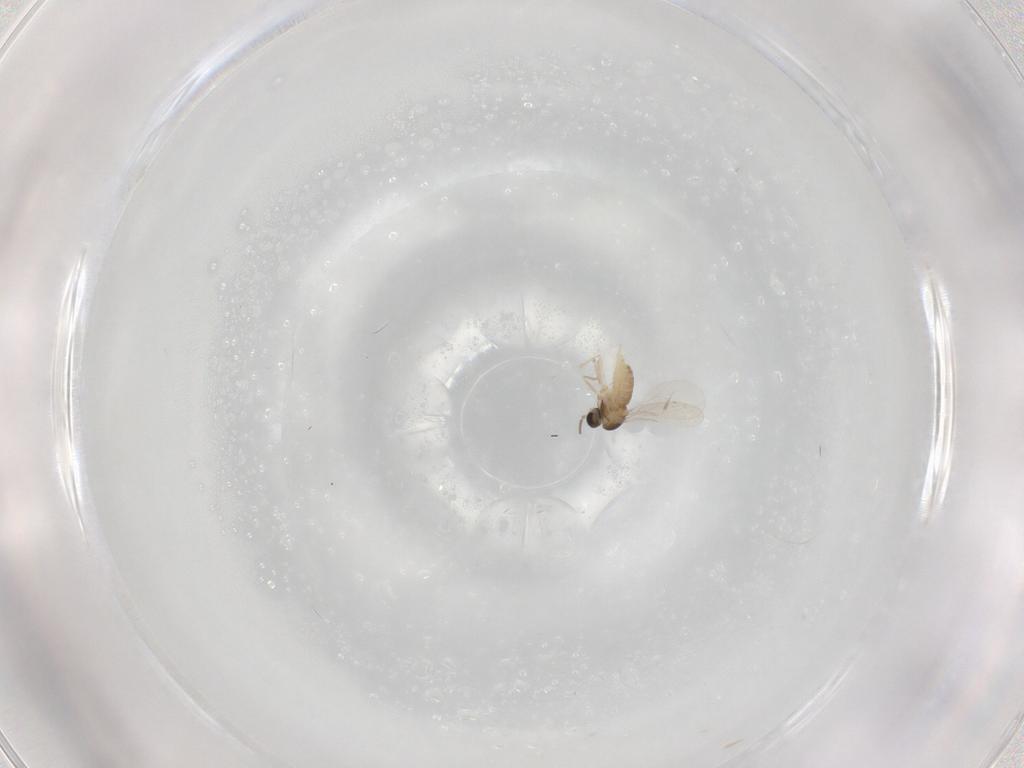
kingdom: Animalia
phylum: Arthropoda
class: Insecta
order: Diptera
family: Cecidomyiidae
